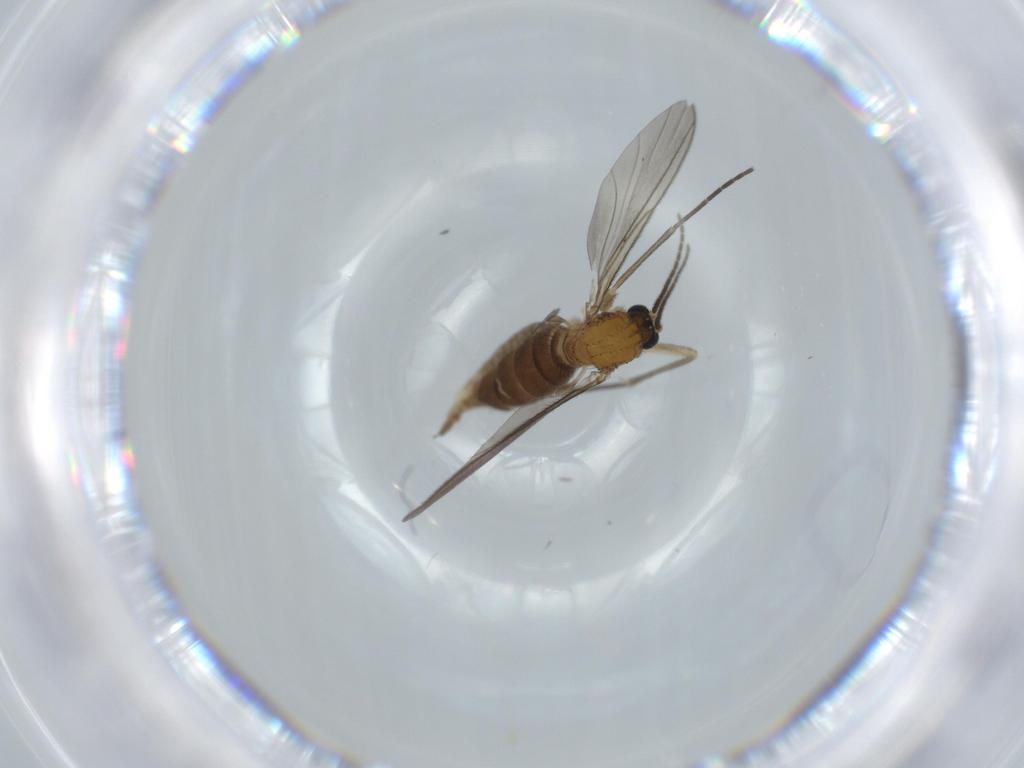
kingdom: Animalia
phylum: Arthropoda
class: Insecta
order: Diptera
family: Sciaridae
